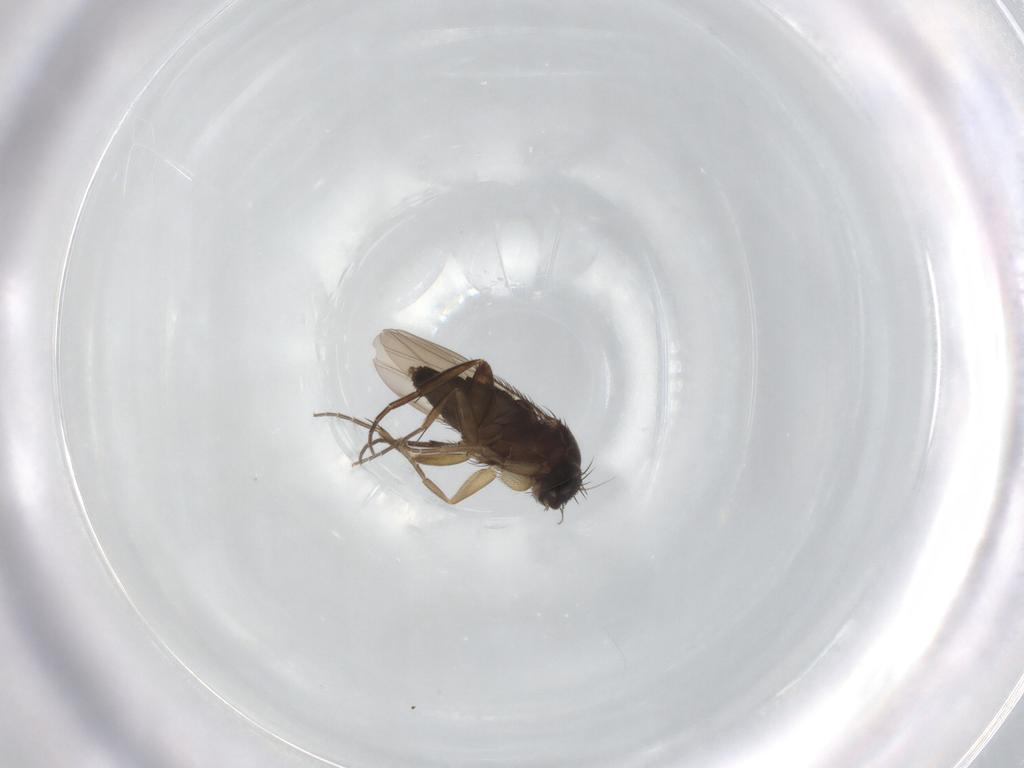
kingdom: Animalia
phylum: Arthropoda
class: Insecta
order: Diptera
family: Phoridae
